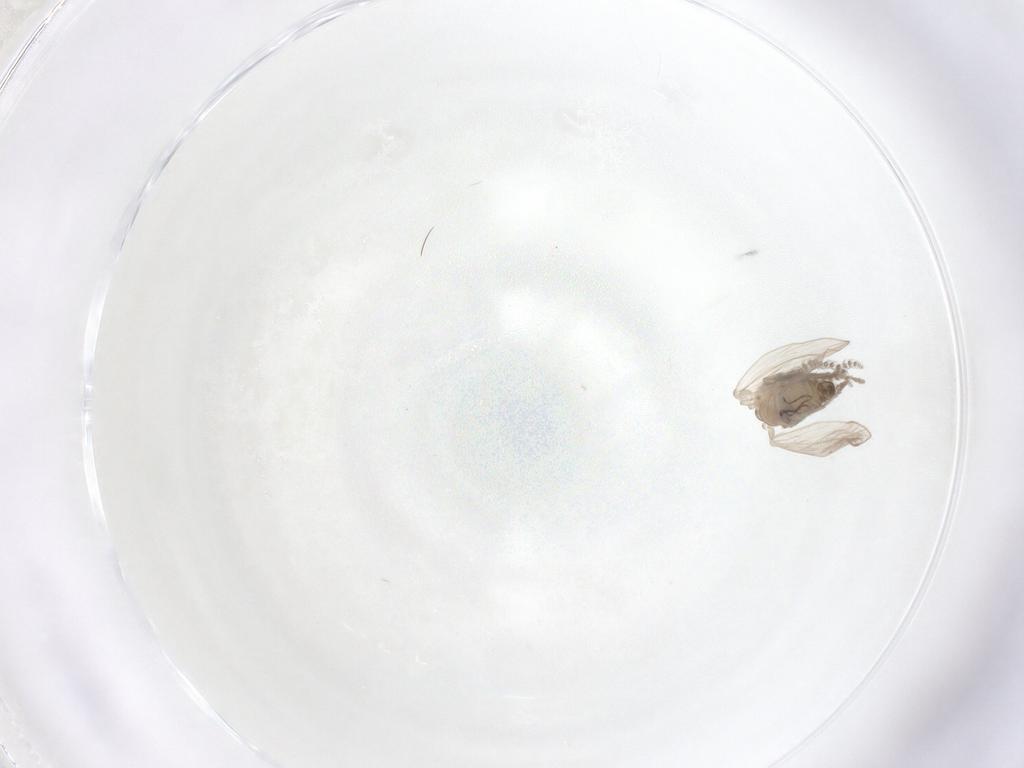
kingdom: Animalia
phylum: Arthropoda
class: Insecta
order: Diptera
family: Psychodidae
